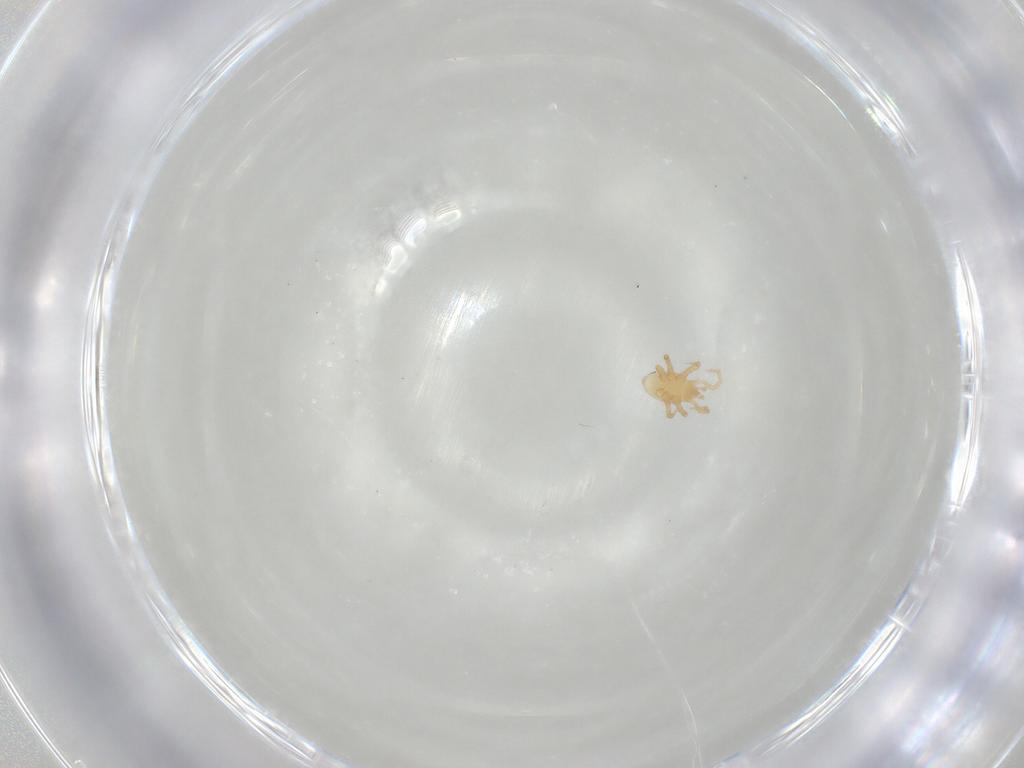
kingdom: Animalia
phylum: Arthropoda
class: Arachnida
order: Mesostigmata
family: Parasitidae
